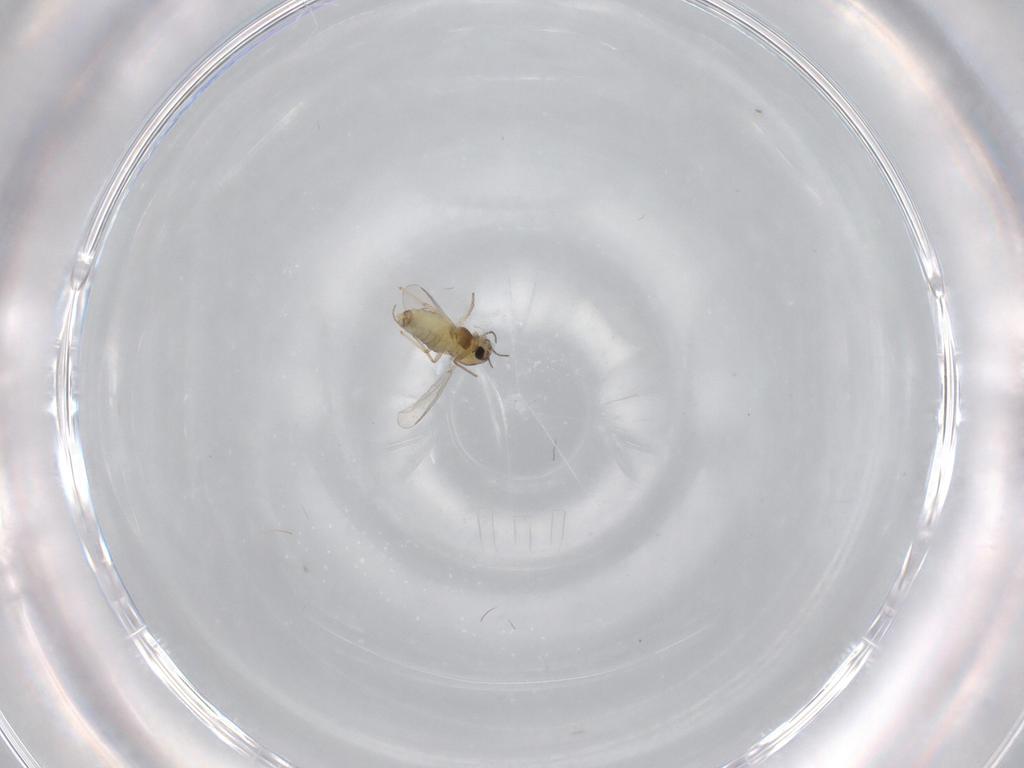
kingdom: Animalia
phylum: Arthropoda
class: Insecta
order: Diptera
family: Chironomidae
